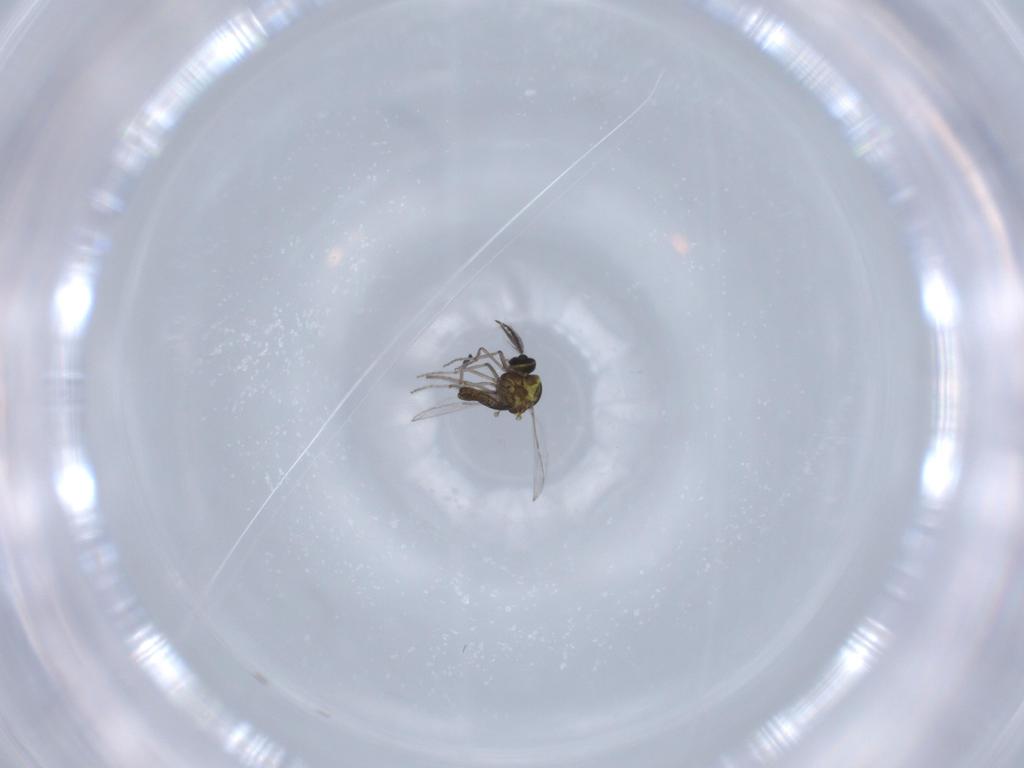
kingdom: Animalia
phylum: Arthropoda
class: Insecta
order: Diptera
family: Ceratopogonidae
